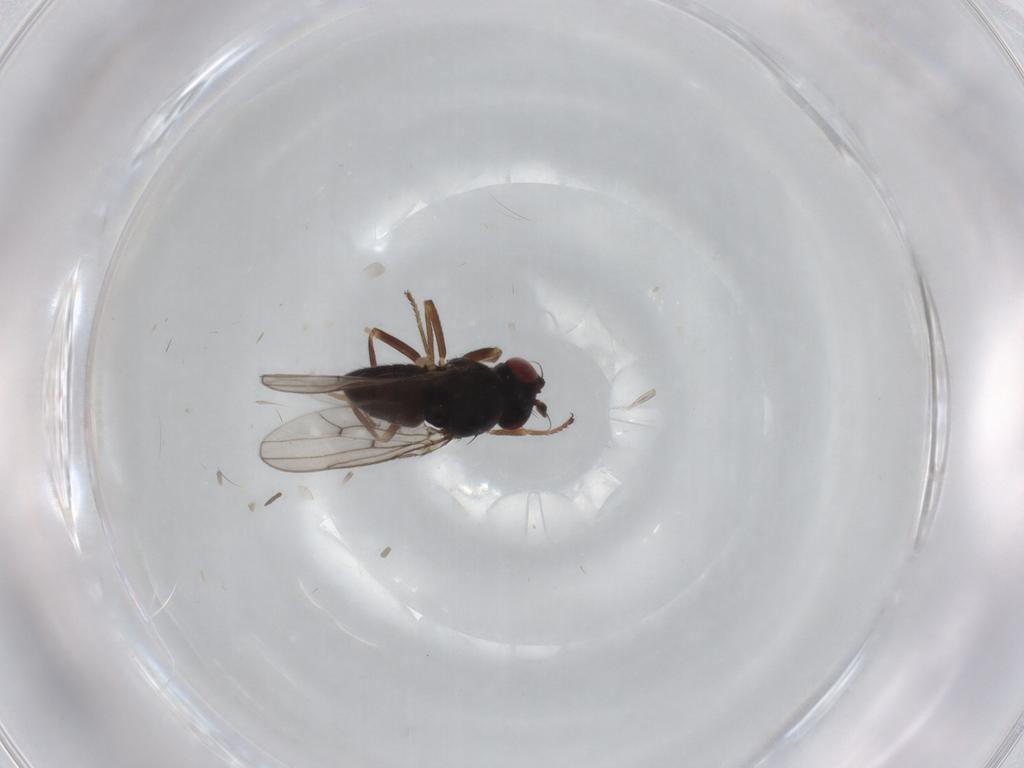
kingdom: Animalia
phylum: Arthropoda
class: Insecta
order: Diptera
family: Ephydridae
